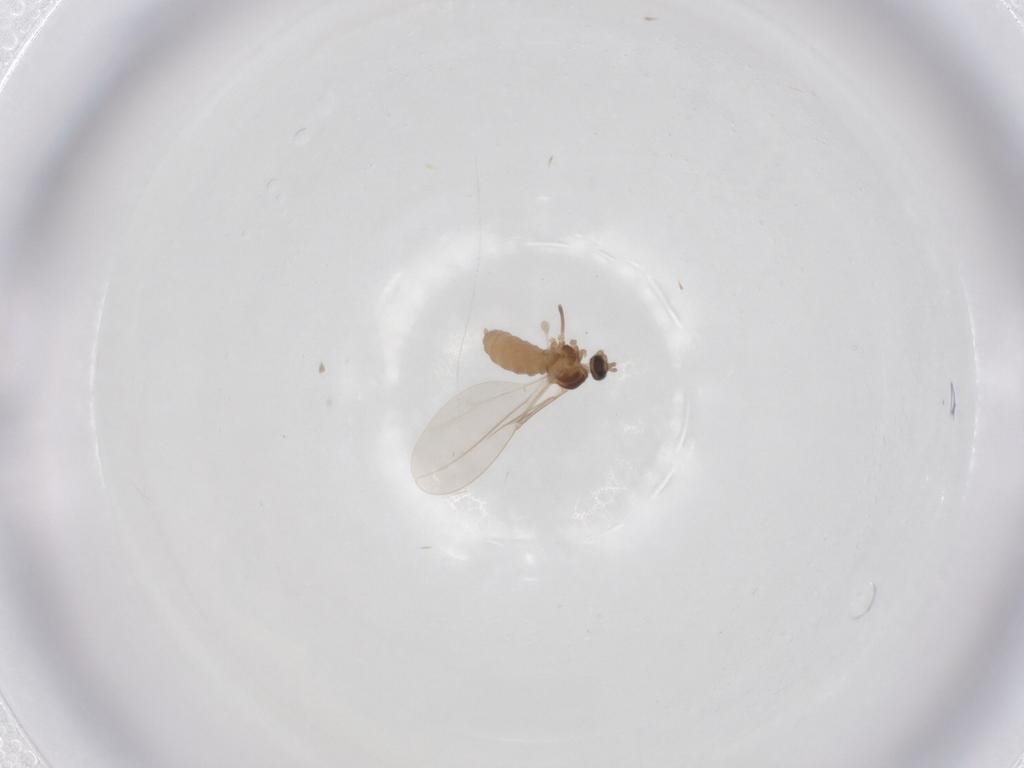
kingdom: Animalia
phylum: Arthropoda
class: Insecta
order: Diptera
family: Cecidomyiidae
